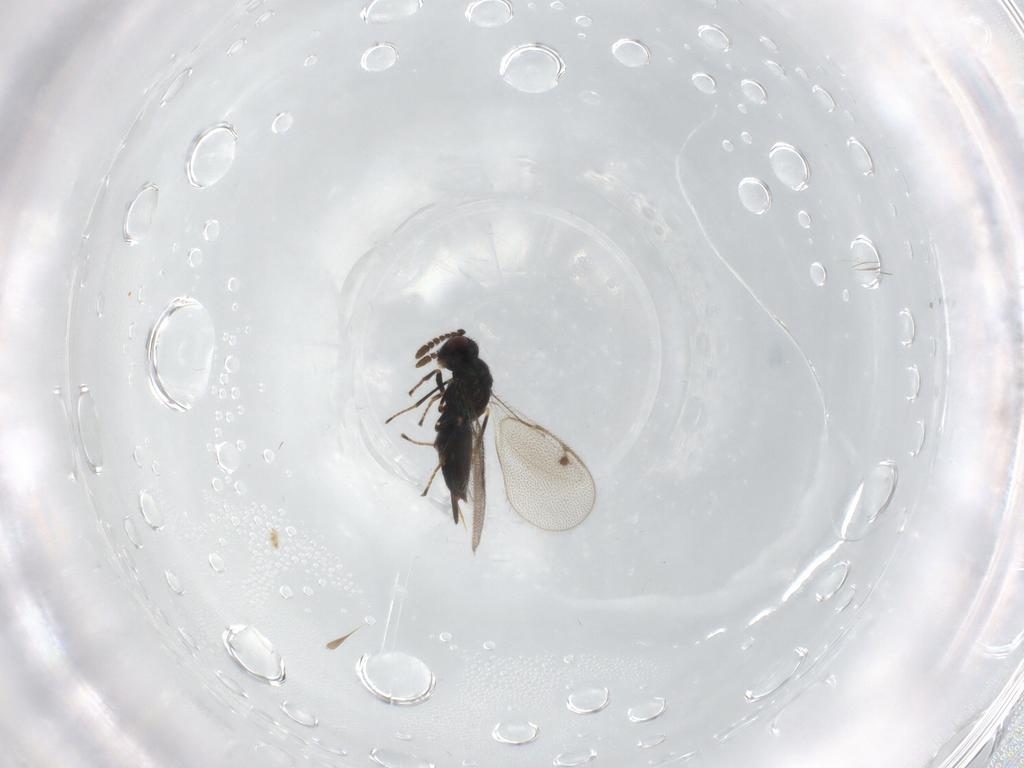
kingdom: Animalia
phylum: Arthropoda
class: Insecta
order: Hymenoptera
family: Pirenidae
